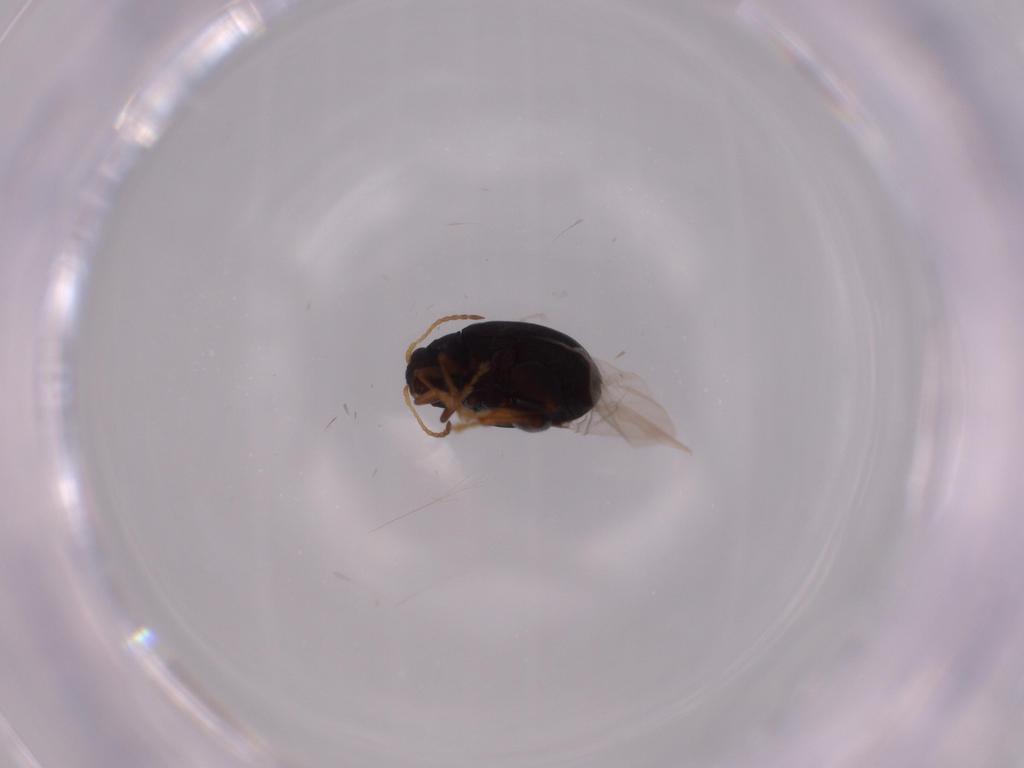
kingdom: Animalia
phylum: Arthropoda
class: Insecta
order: Coleoptera
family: Chrysomelidae
